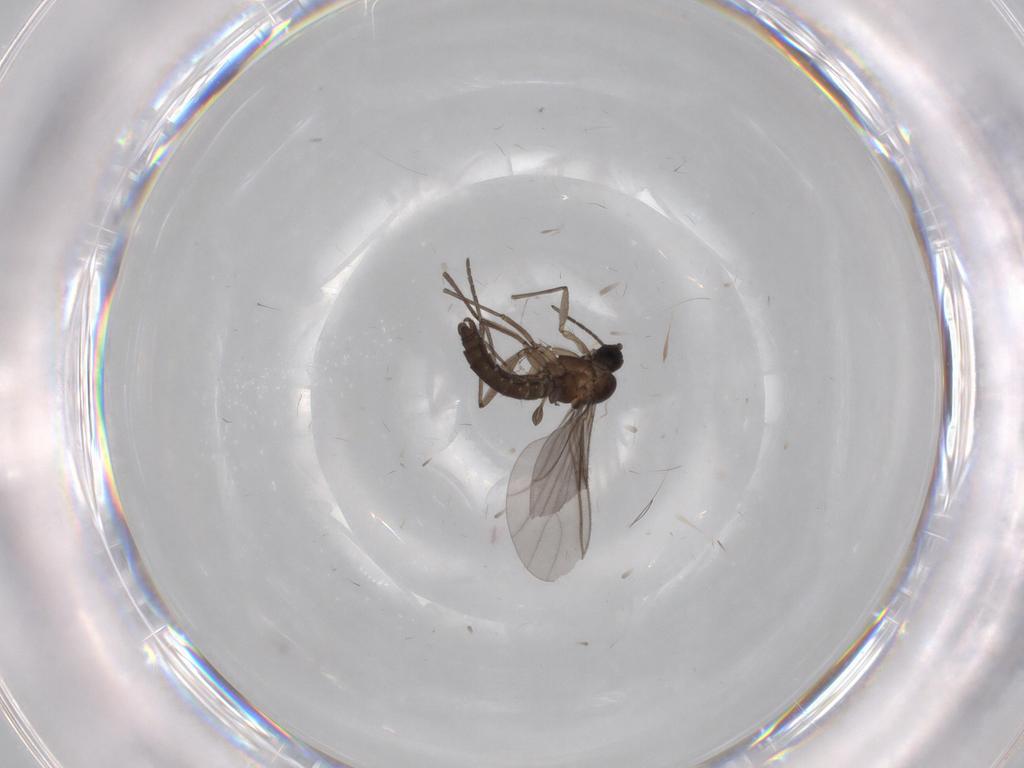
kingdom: Animalia
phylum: Arthropoda
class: Insecta
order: Diptera
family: Sciaridae
